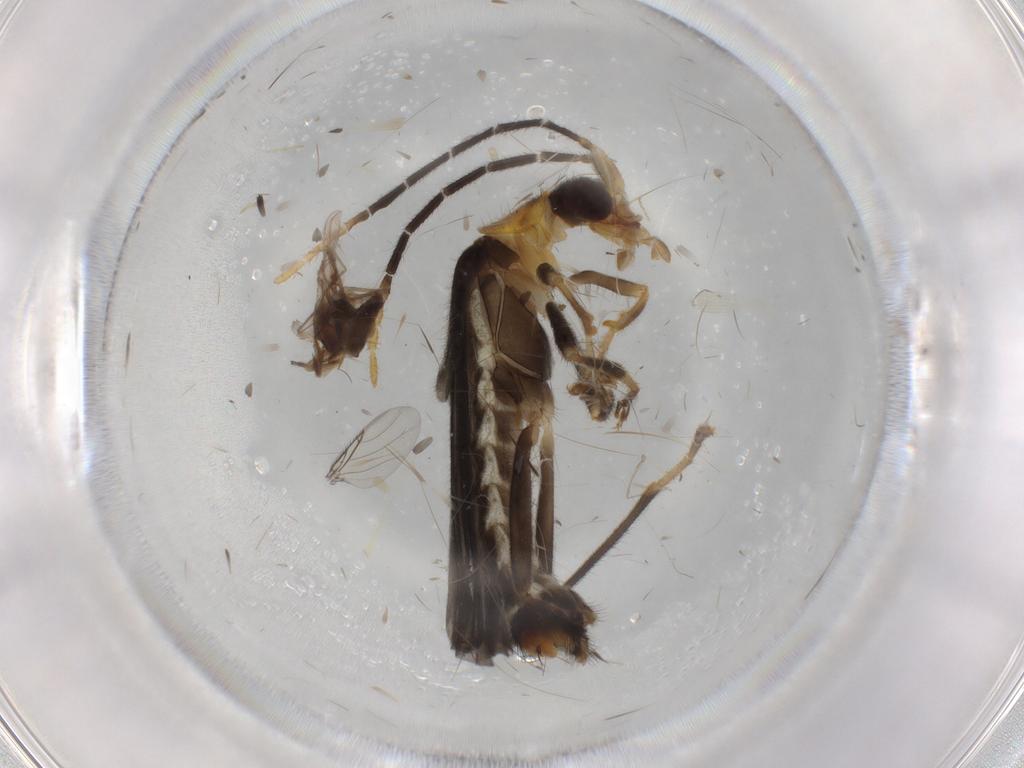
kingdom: Animalia
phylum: Arthropoda
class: Insecta
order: Coleoptera
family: Cantharidae
